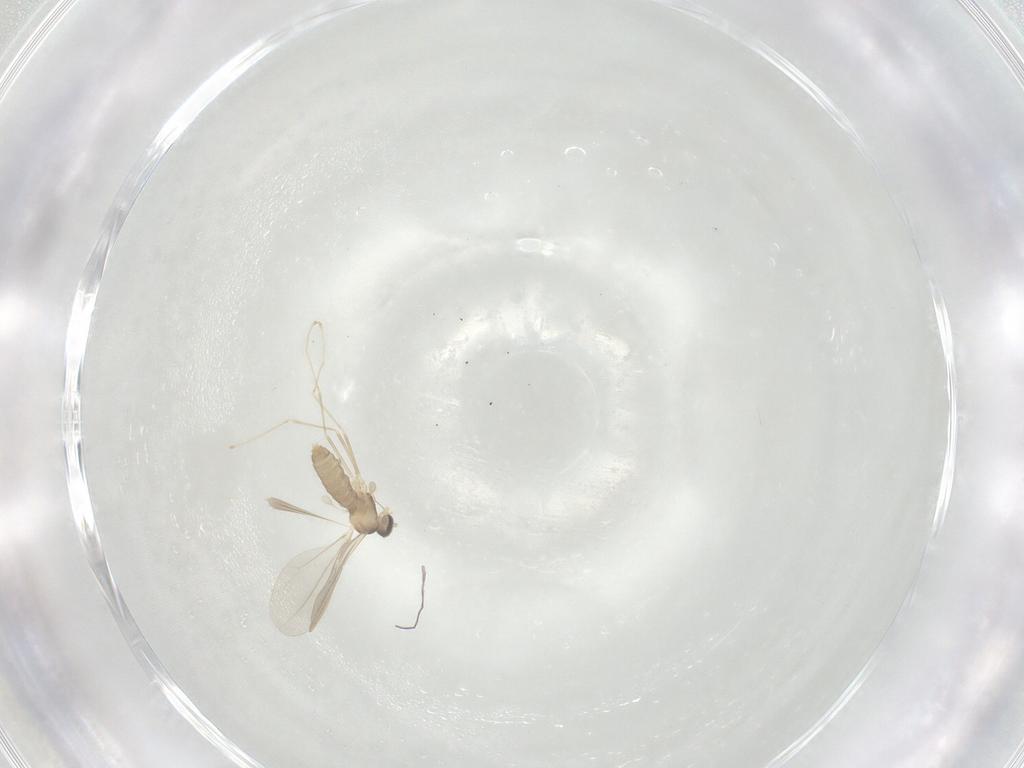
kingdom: Animalia
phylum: Arthropoda
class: Insecta
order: Diptera
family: Cecidomyiidae
